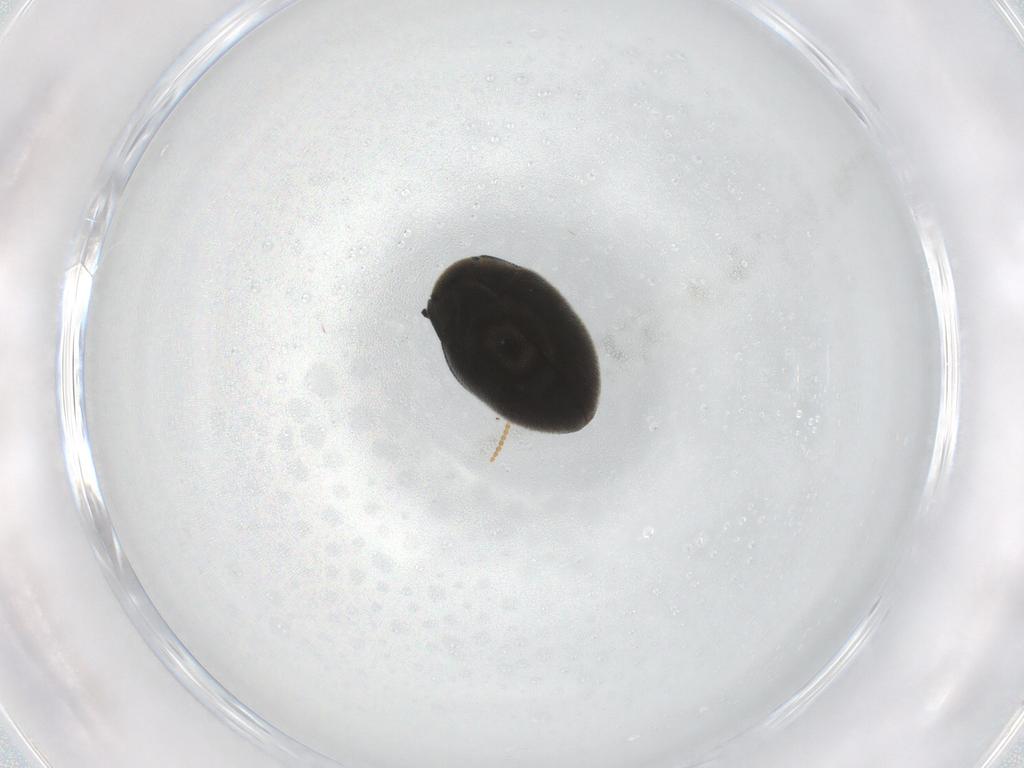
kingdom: Animalia
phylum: Arthropoda
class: Insecta
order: Coleoptera
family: Limnichidae
